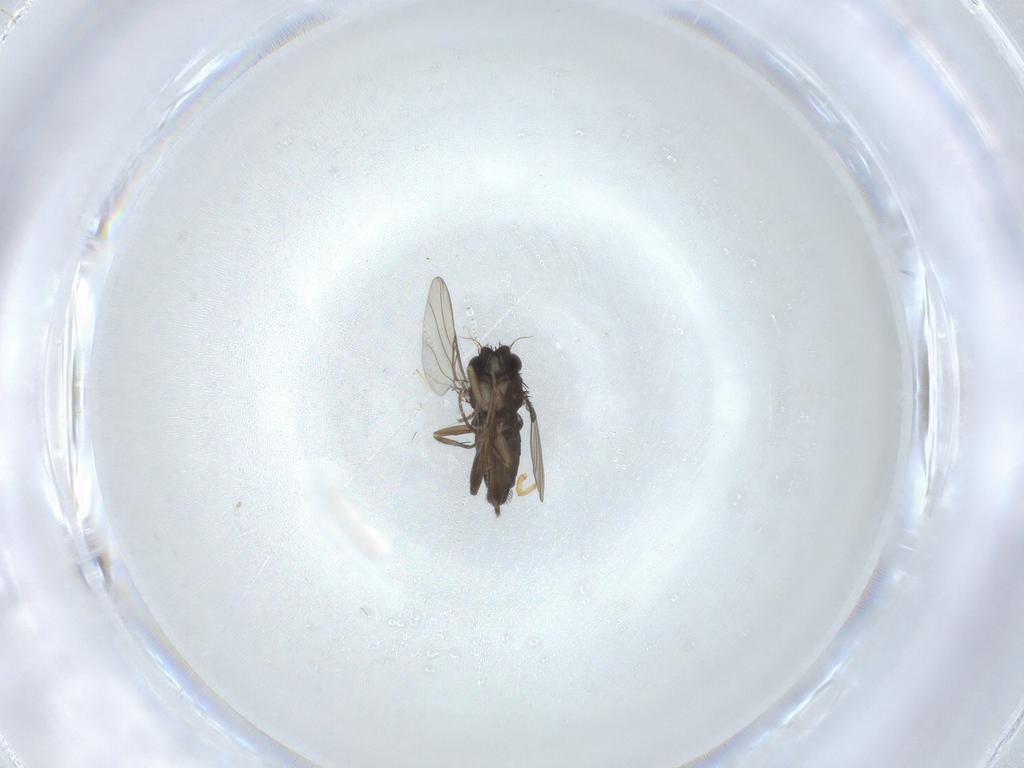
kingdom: Animalia
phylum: Arthropoda
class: Insecta
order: Diptera
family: Phoridae
